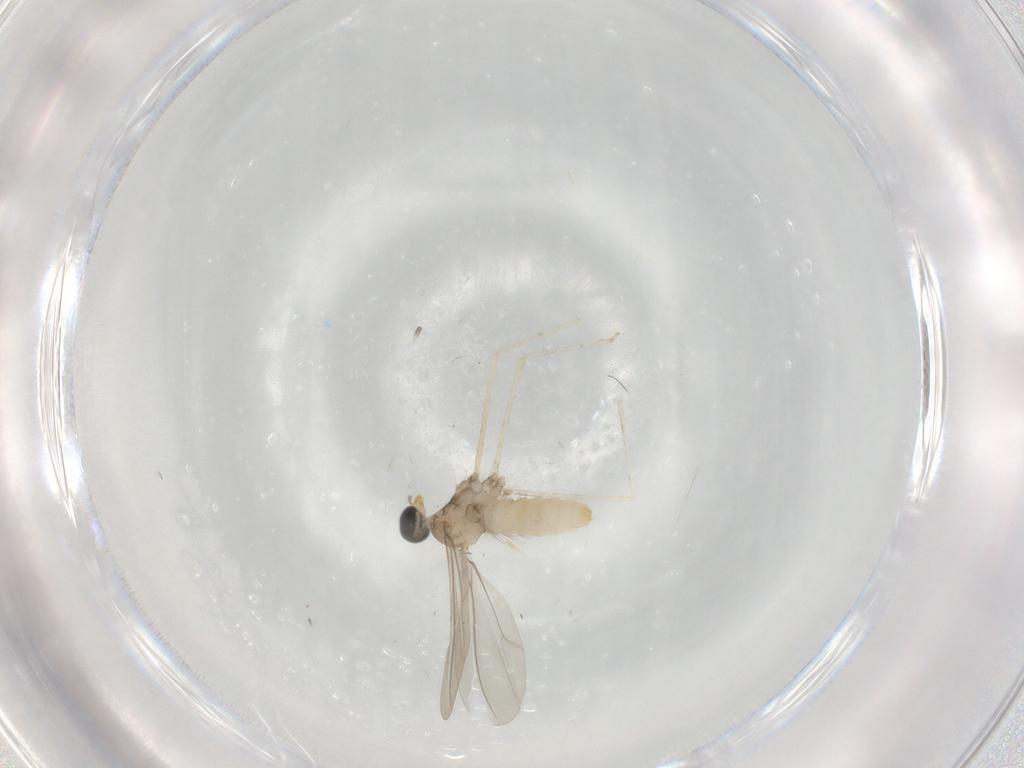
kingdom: Animalia
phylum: Arthropoda
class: Insecta
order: Diptera
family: Cecidomyiidae
